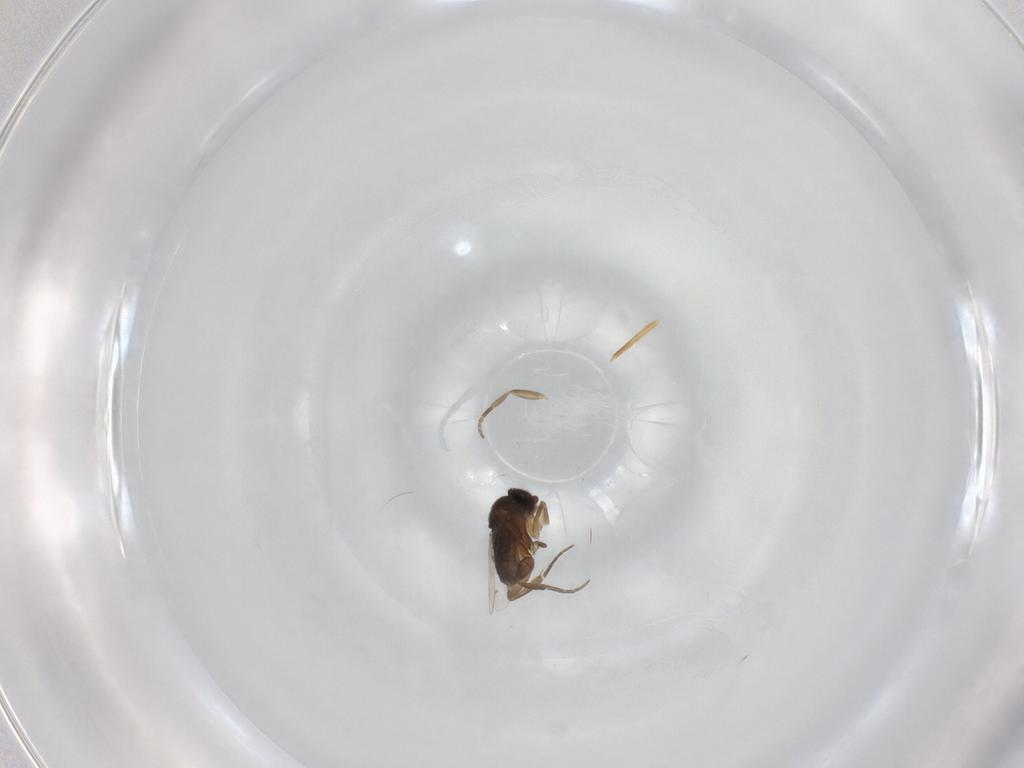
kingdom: Animalia
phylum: Arthropoda
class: Insecta
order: Diptera
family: Phoridae
